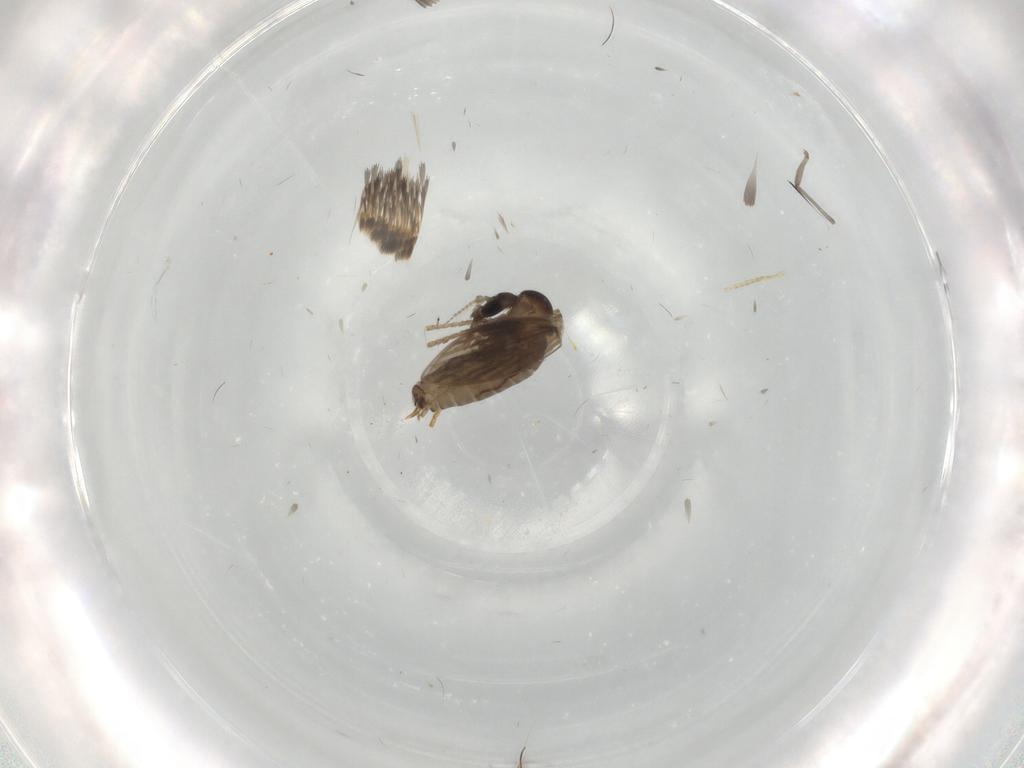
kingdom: Animalia
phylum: Arthropoda
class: Insecta
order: Diptera
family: Psychodidae
